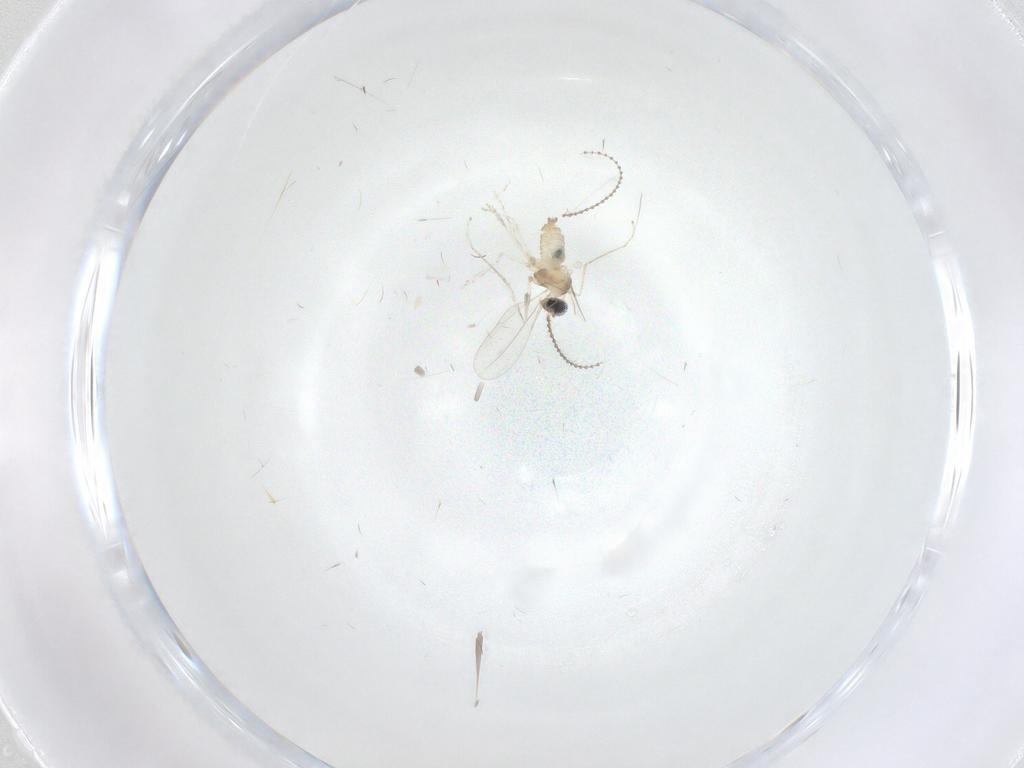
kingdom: Animalia
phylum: Arthropoda
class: Insecta
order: Diptera
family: Cecidomyiidae
